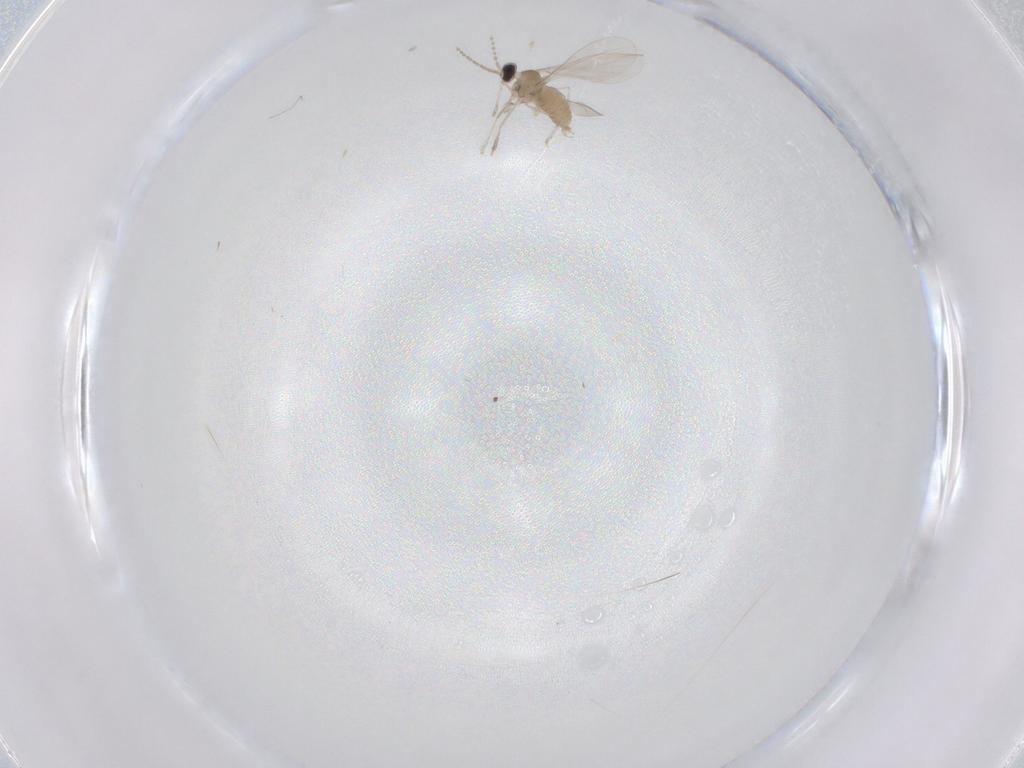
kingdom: Animalia
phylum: Arthropoda
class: Insecta
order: Diptera
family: Chironomidae
